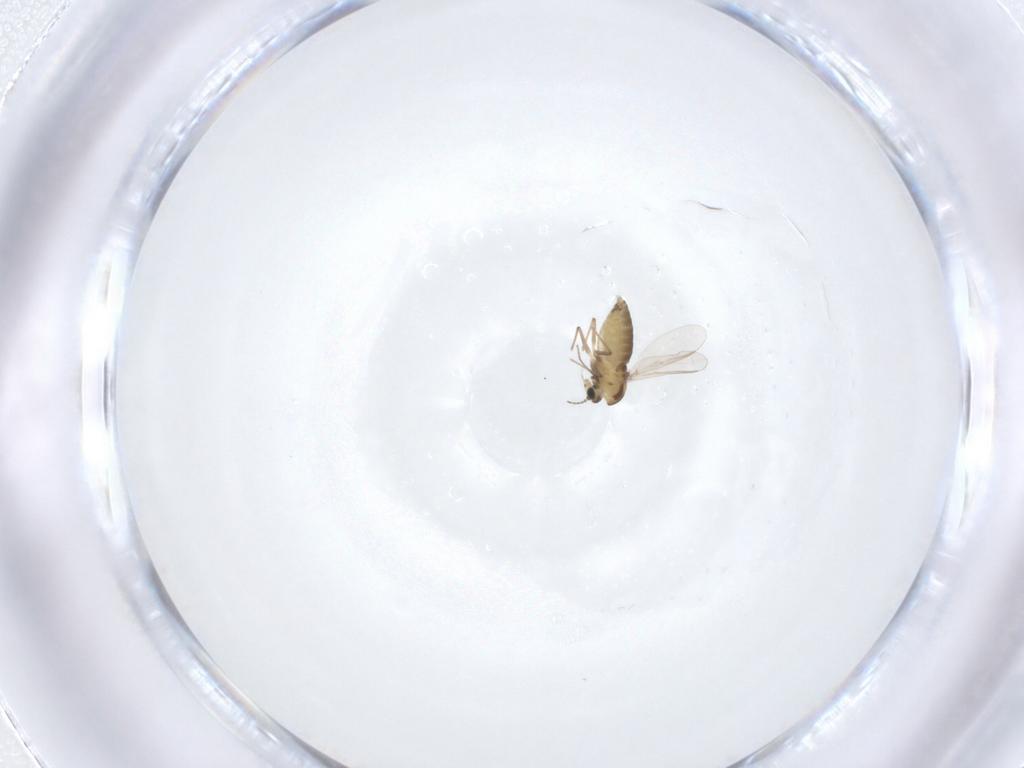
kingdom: Animalia
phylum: Arthropoda
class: Insecta
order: Diptera
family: Chironomidae
